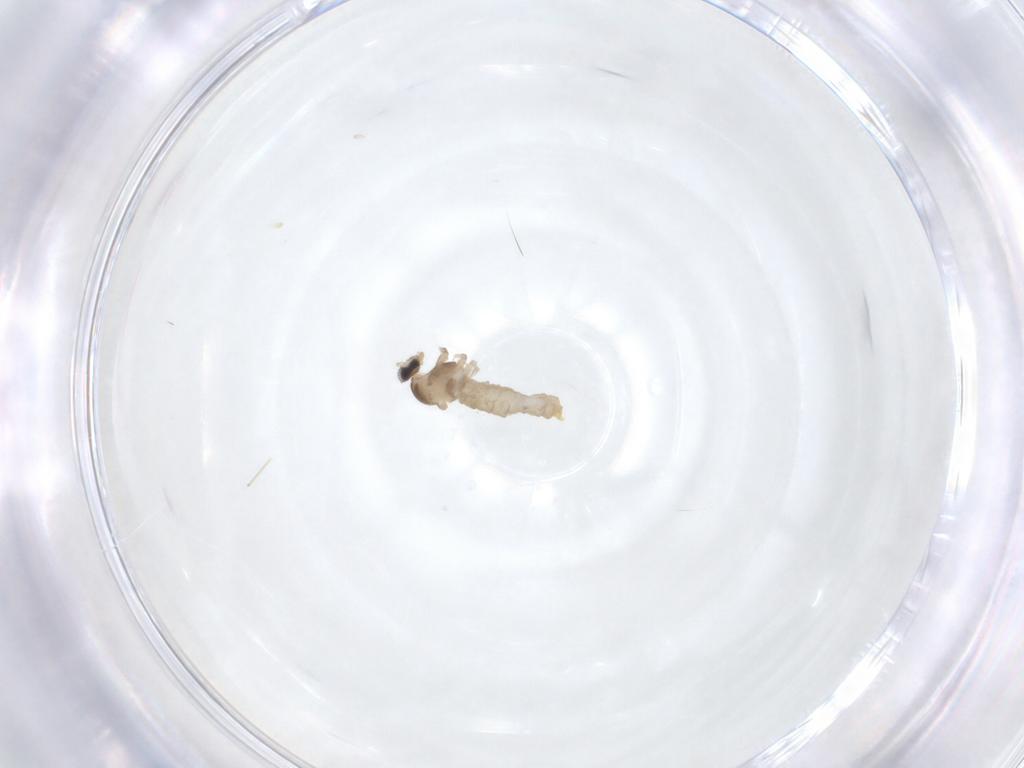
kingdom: Animalia
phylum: Arthropoda
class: Insecta
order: Diptera
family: Cecidomyiidae
